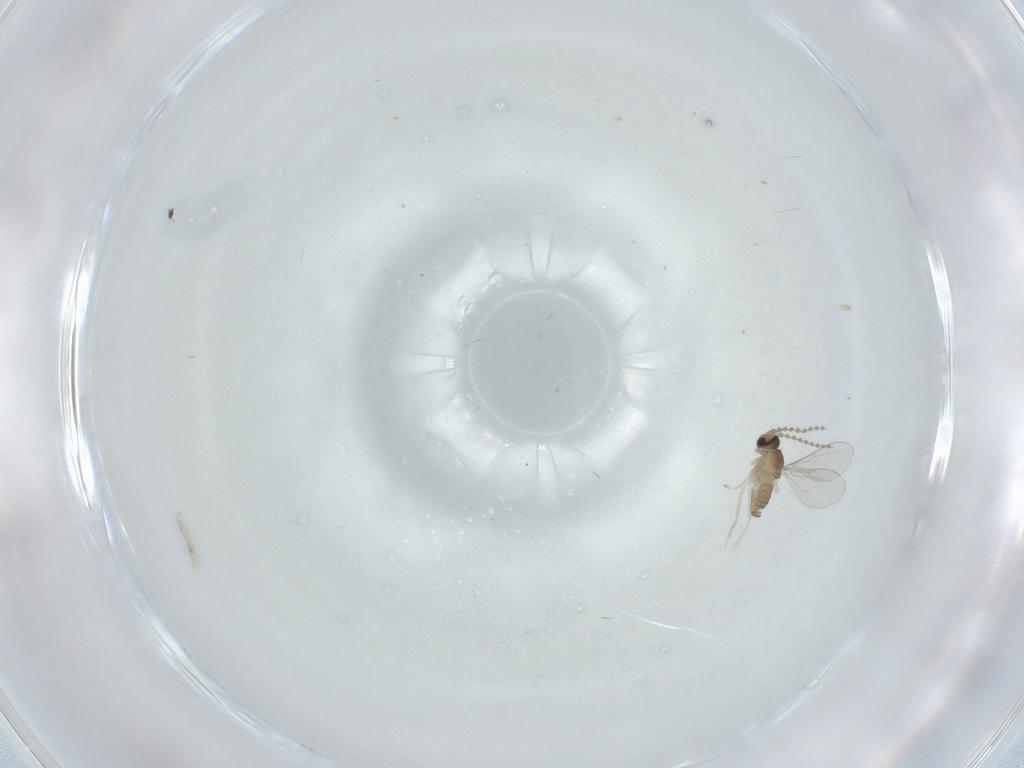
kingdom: Animalia
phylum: Arthropoda
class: Insecta
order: Diptera
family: Cecidomyiidae
